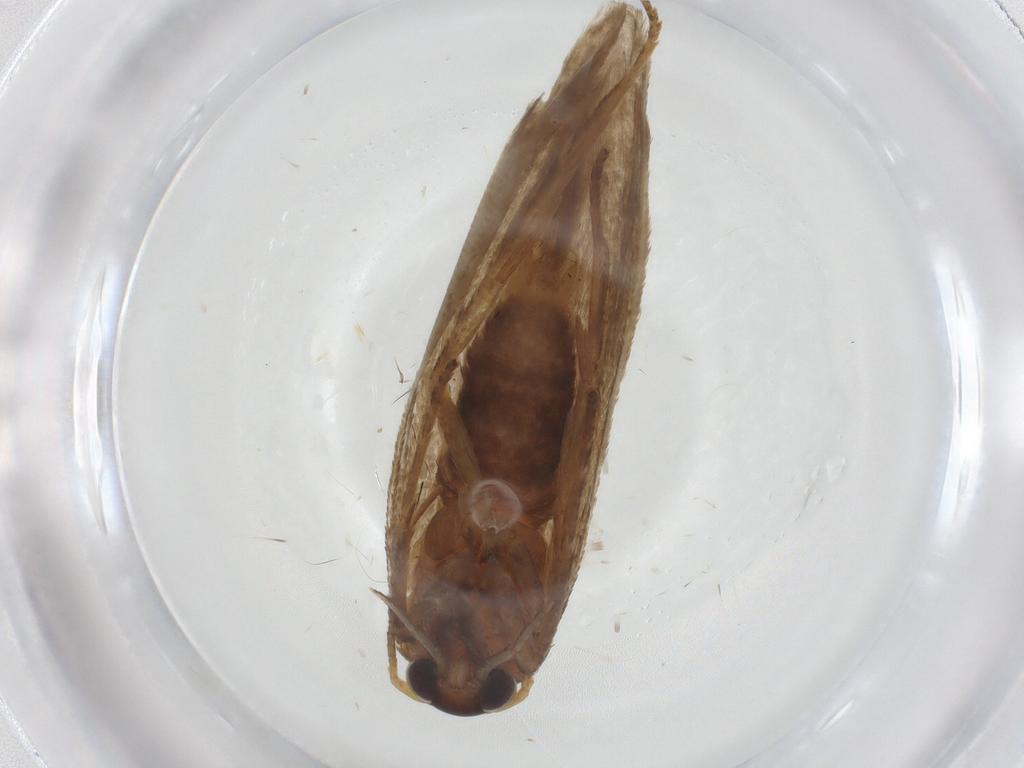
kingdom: Animalia
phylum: Arthropoda
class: Insecta
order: Lepidoptera
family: Blastobasidae
